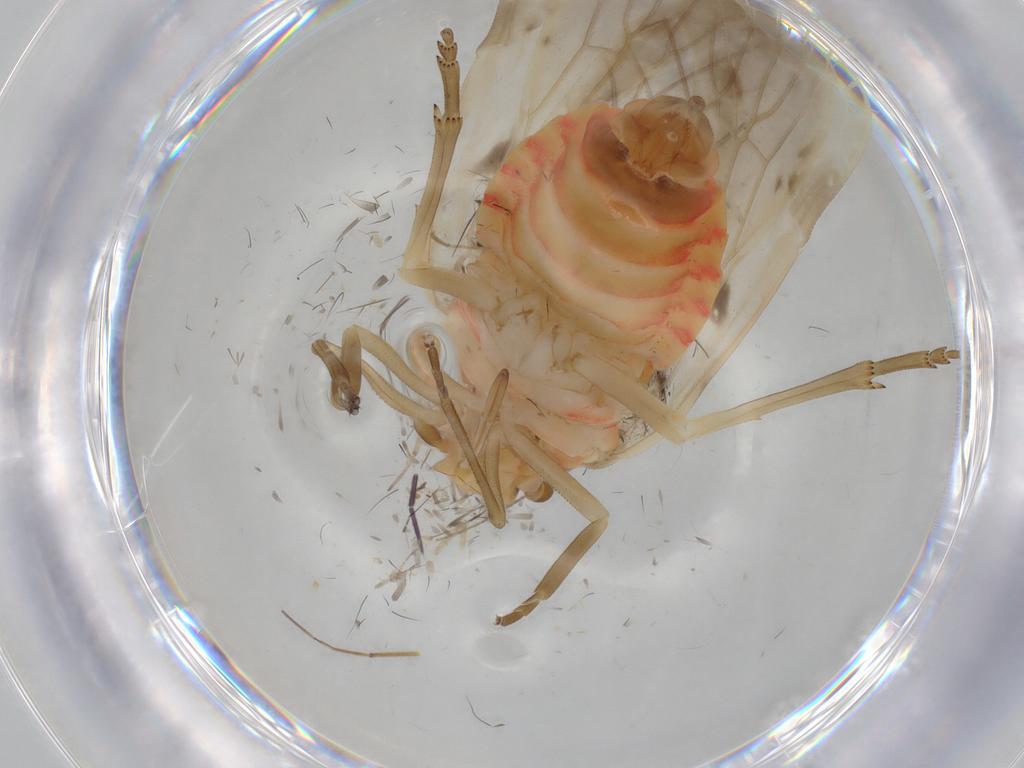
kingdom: Animalia
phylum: Arthropoda
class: Insecta
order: Hemiptera
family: Achilidae
